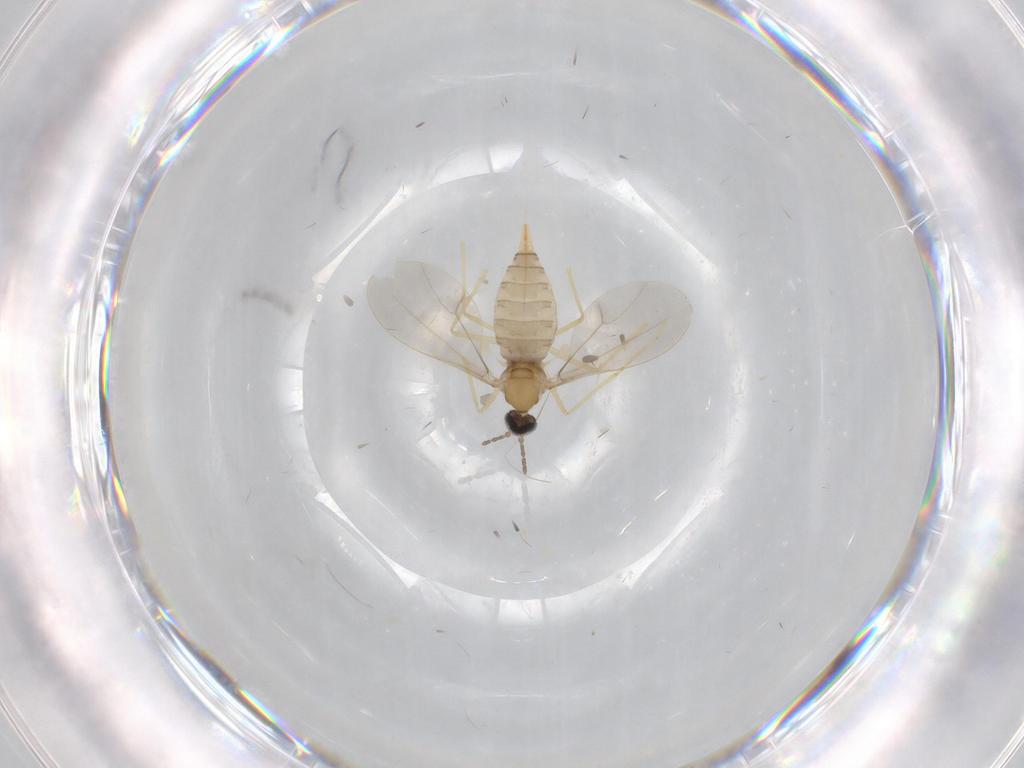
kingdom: Animalia
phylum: Arthropoda
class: Insecta
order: Diptera
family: Cecidomyiidae
